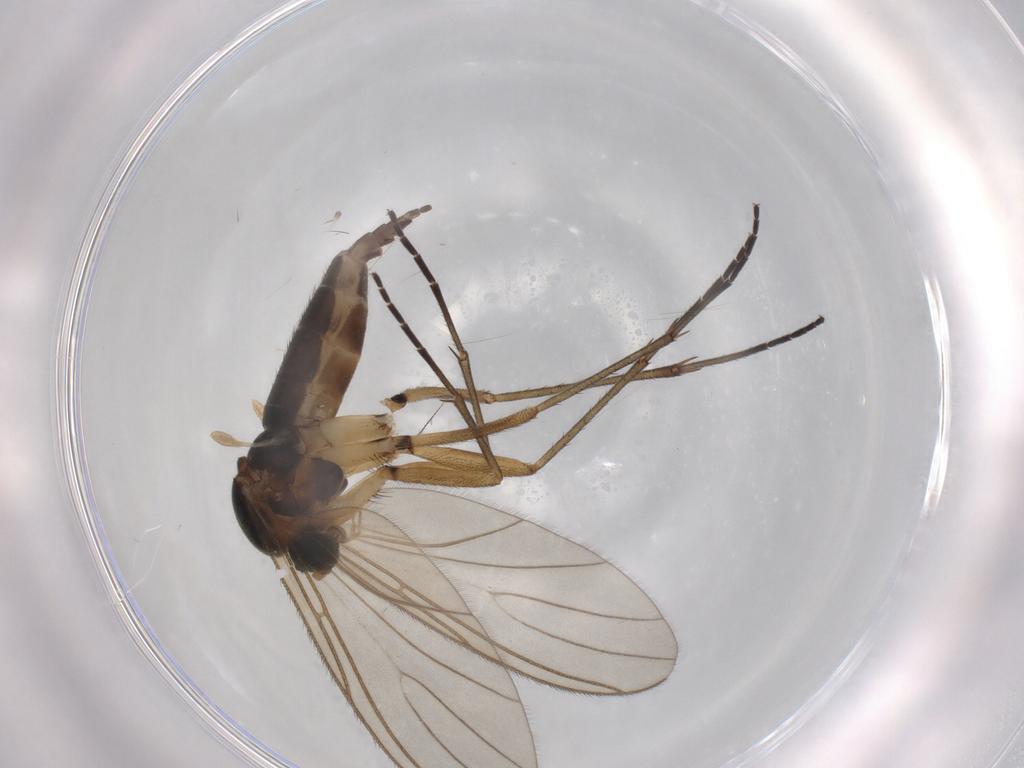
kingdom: Animalia
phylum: Arthropoda
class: Insecta
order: Diptera
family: Sciaridae
